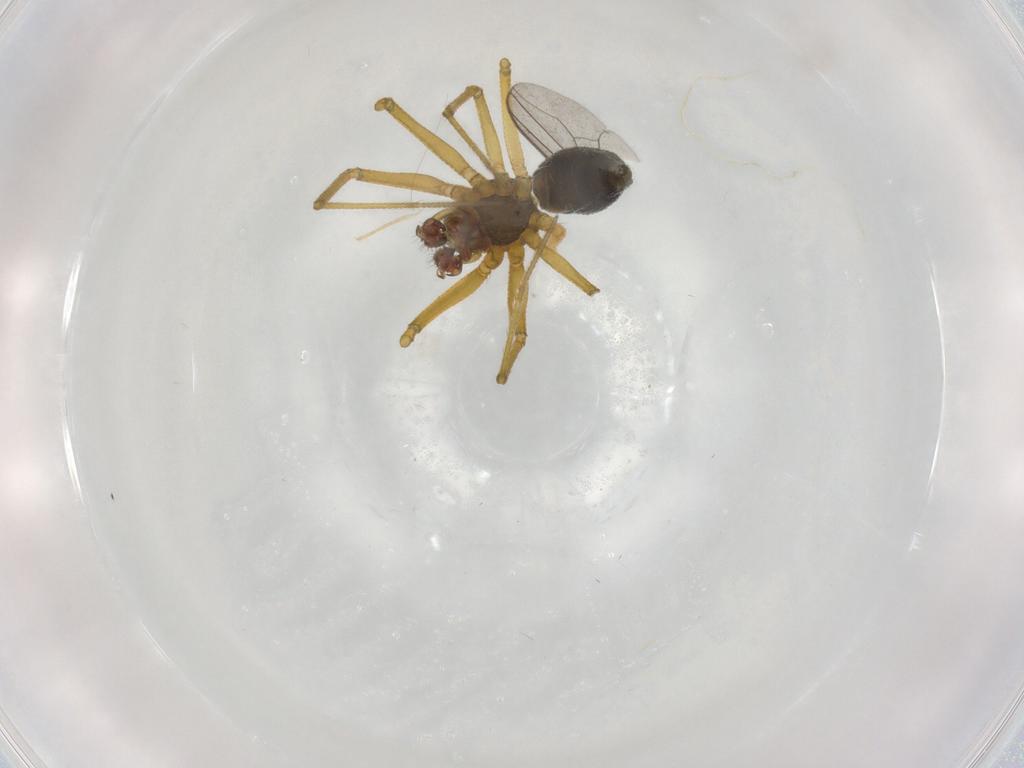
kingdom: Animalia
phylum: Arthropoda
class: Arachnida
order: Araneae
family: Linyphiidae
